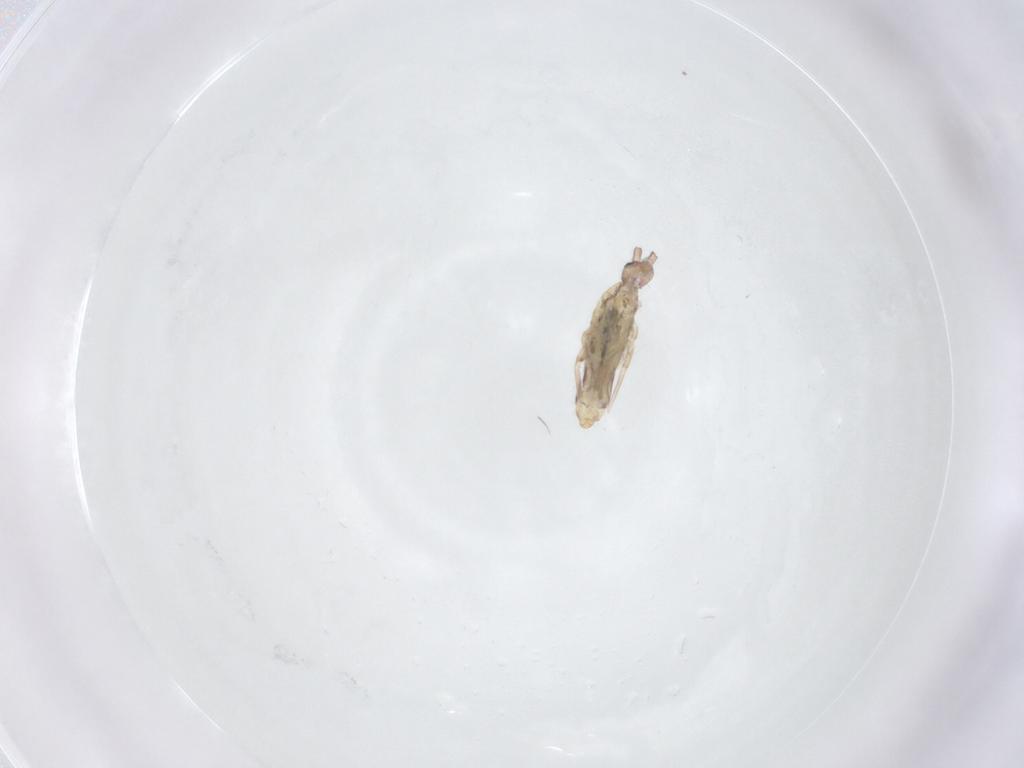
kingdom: Animalia
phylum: Arthropoda
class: Collembola
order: Entomobryomorpha
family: Entomobryidae
